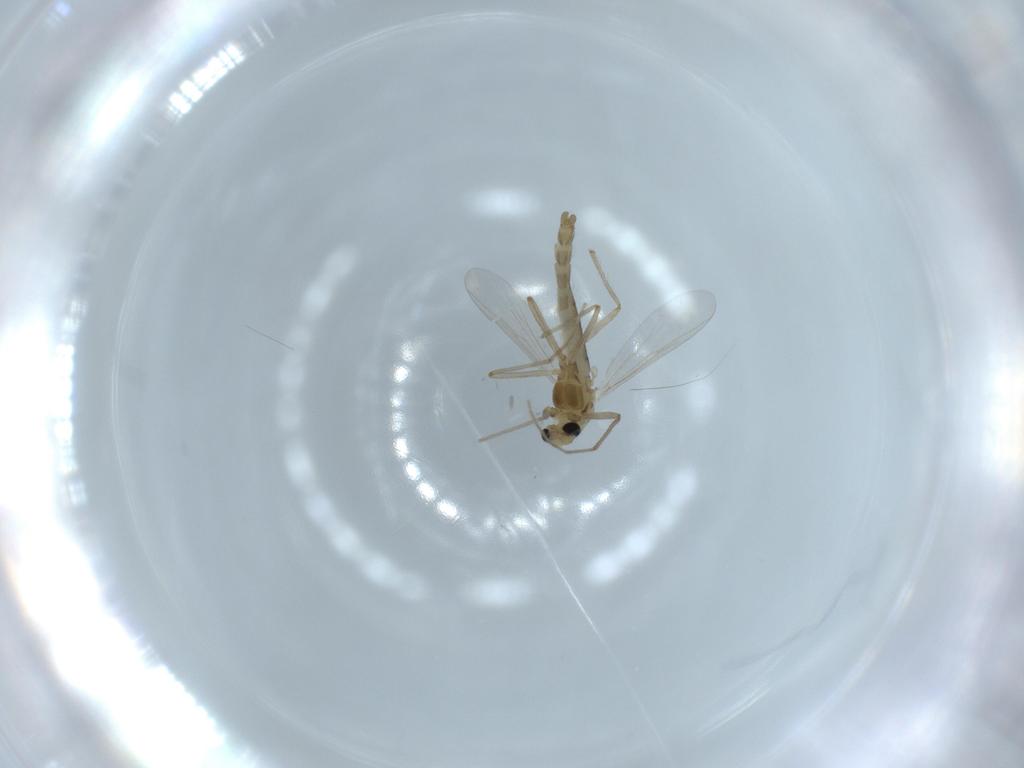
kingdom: Animalia
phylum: Arthropoda
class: Insecta
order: Diptera
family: Chironomidae
